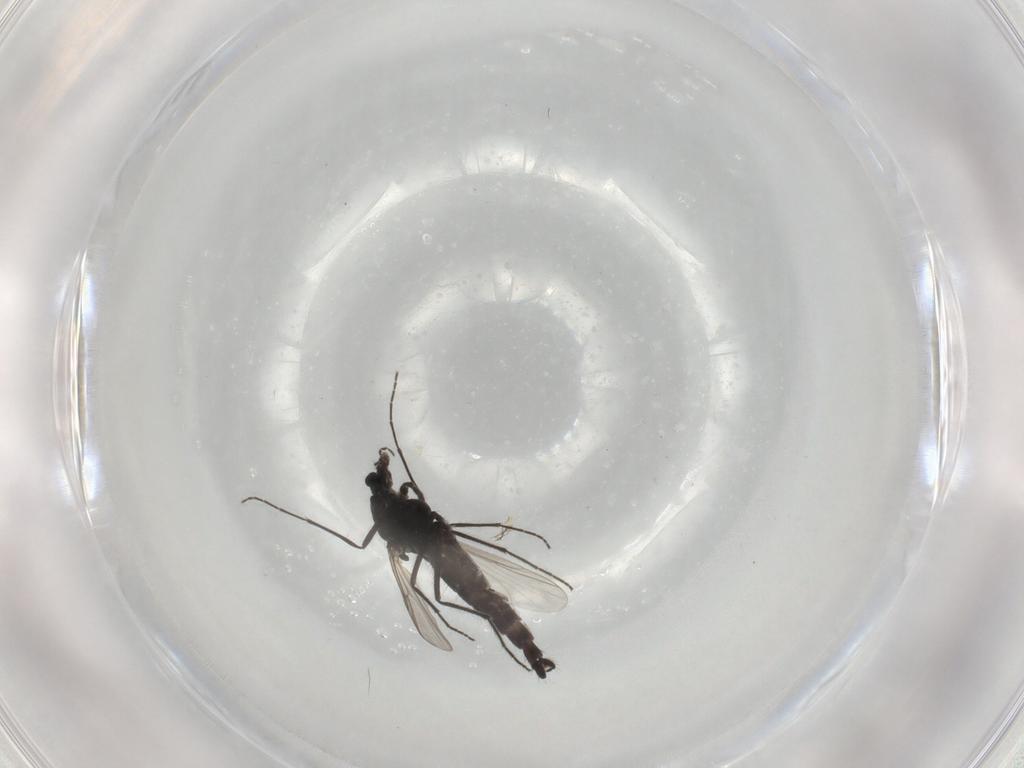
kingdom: Animalia
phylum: Arthropoda
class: Insecta
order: Diptera
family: Chironomidae
